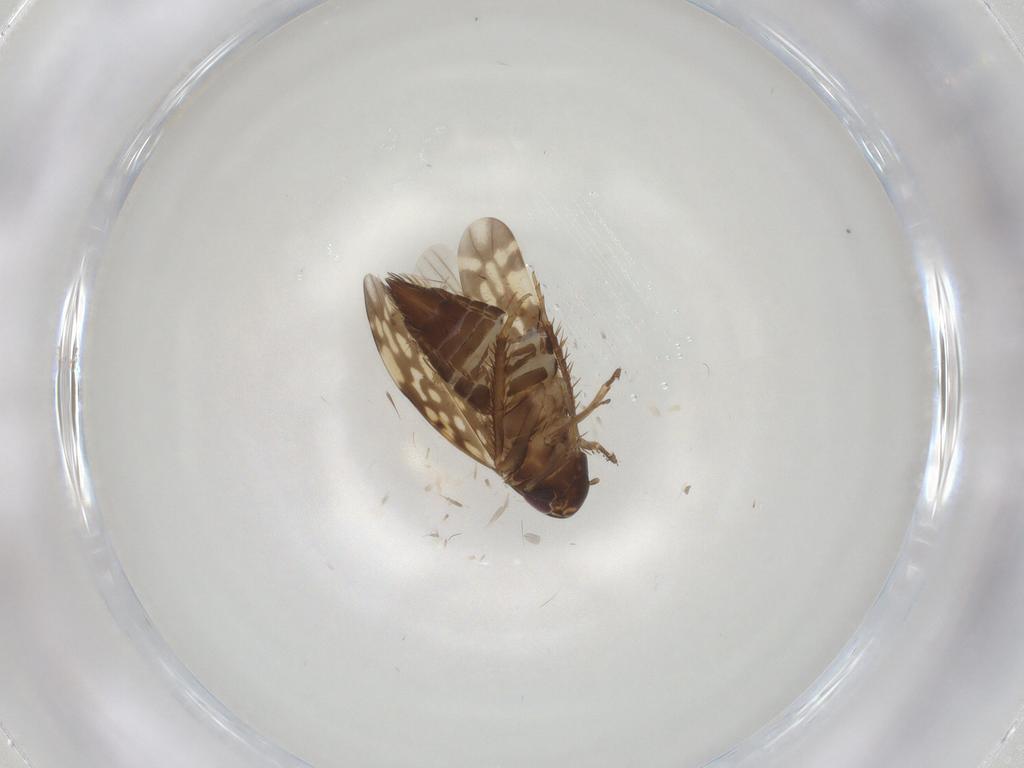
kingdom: Animalia
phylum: Arthropoda
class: Insecta
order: Hemiptera
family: Cicadellidae
